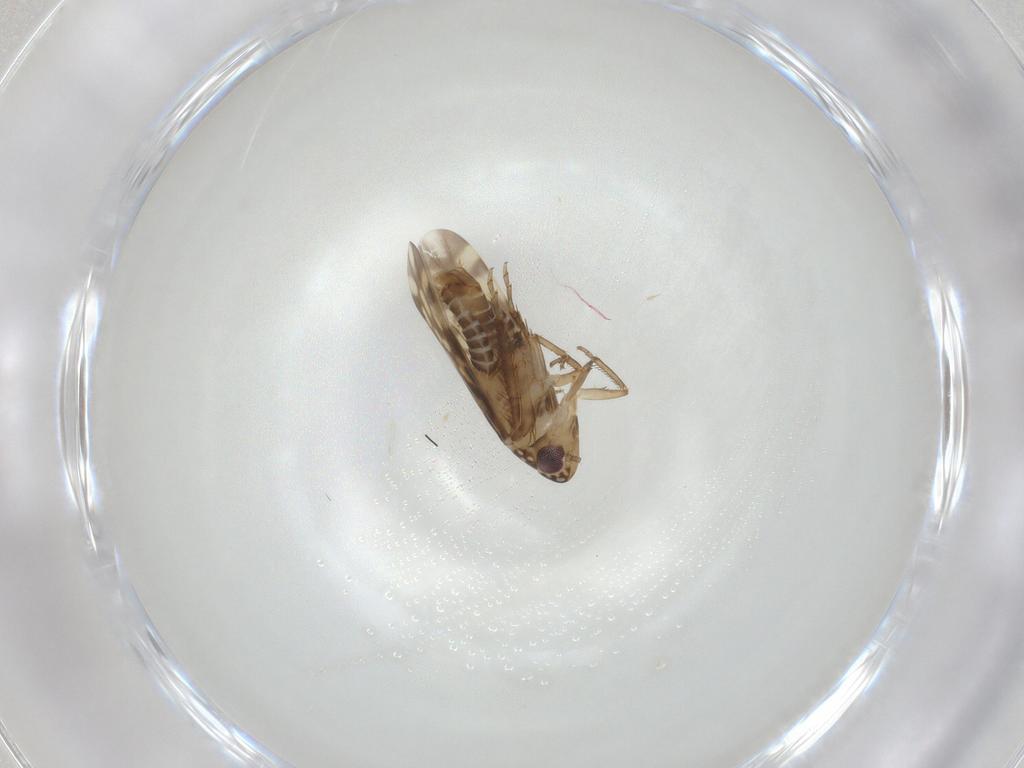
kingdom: Animalia
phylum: Arthropoda
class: Insecta
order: Hemiptera
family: Cicadellidae
